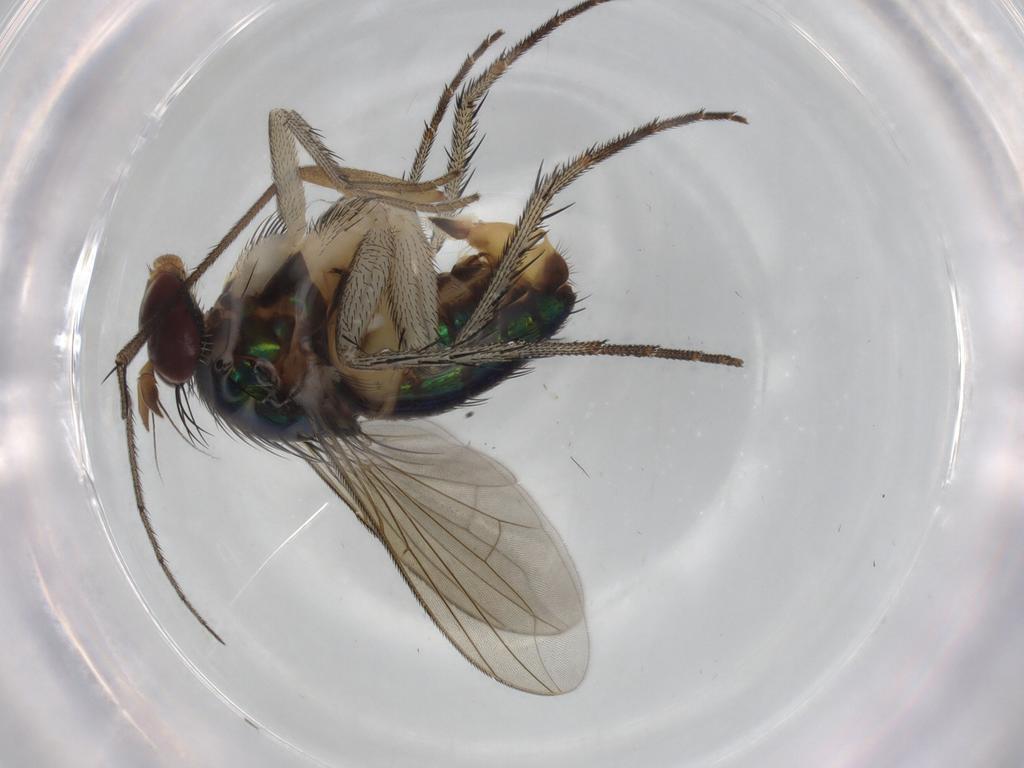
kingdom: Animalia
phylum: Arthropoda
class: Insecta
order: Diptera
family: Dolichopodidae
